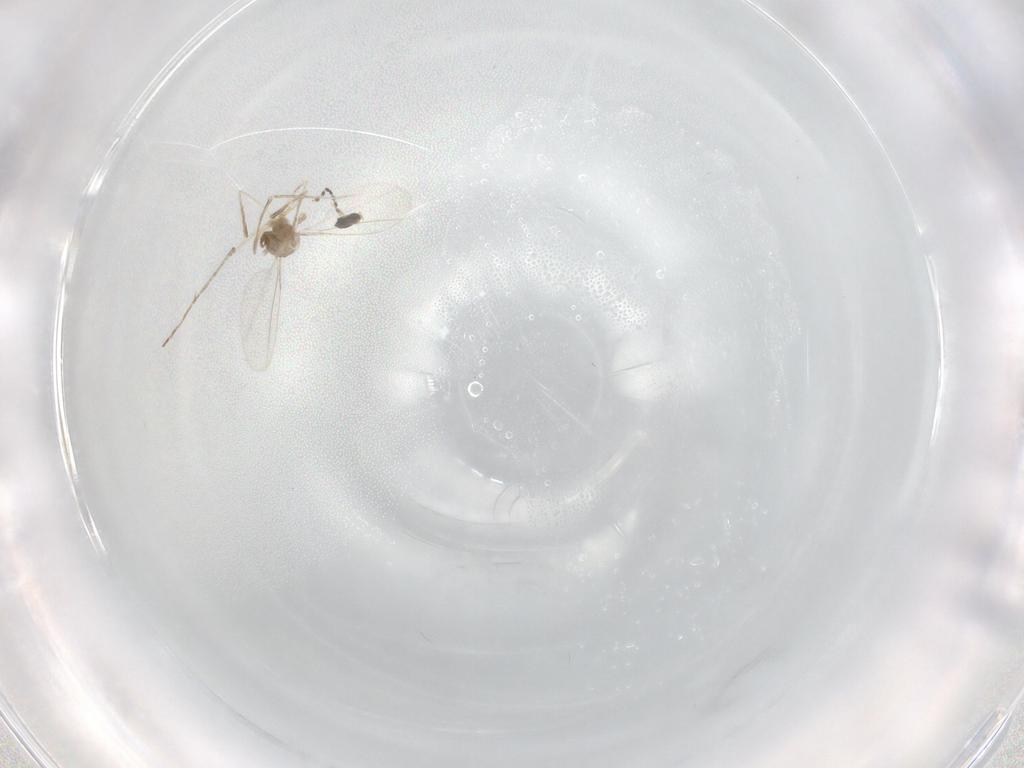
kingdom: Animalia
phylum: Arthropoda
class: Insecta
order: Diptera
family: Cecidomyiidae
